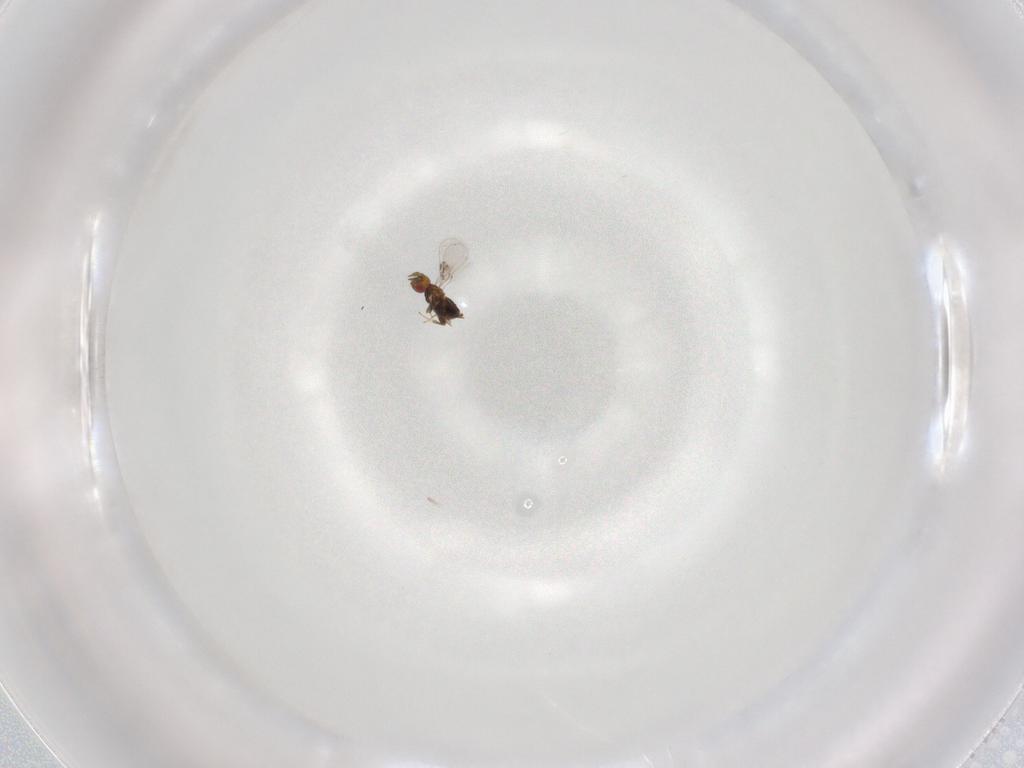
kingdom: Animalia
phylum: Arthropoda
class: Insecta
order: Hymenoptera
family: Trichogrammatidae
